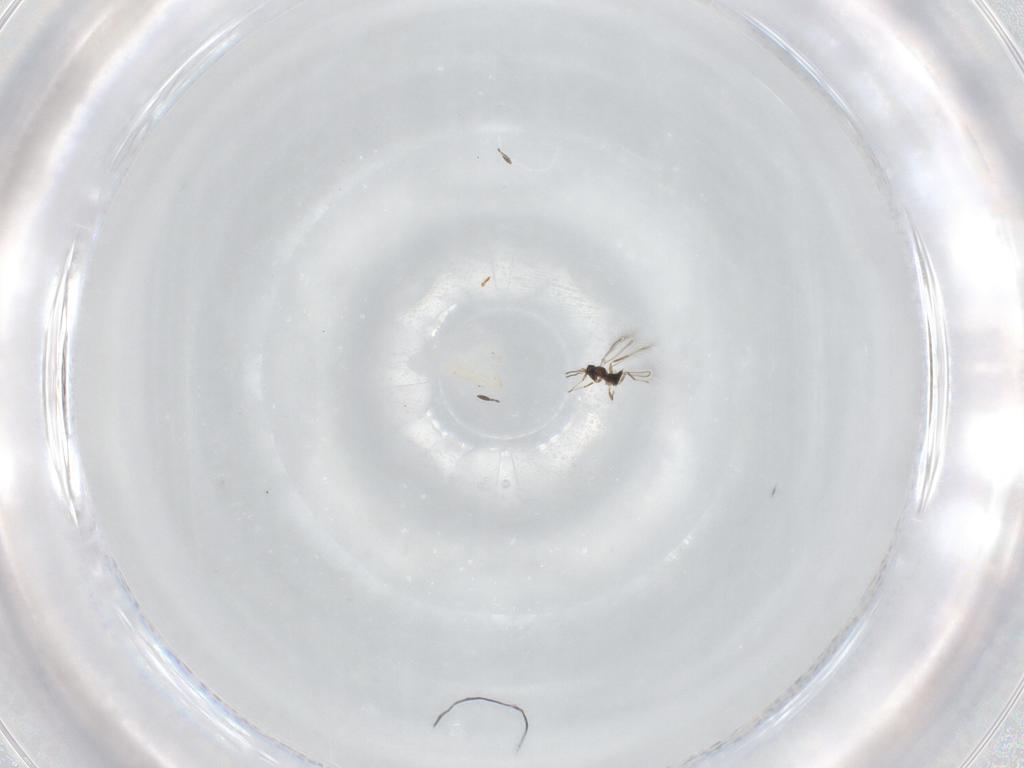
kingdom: Animalia
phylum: Arthropoda
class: Insecta
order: Hymenoptera
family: Mymaridae
